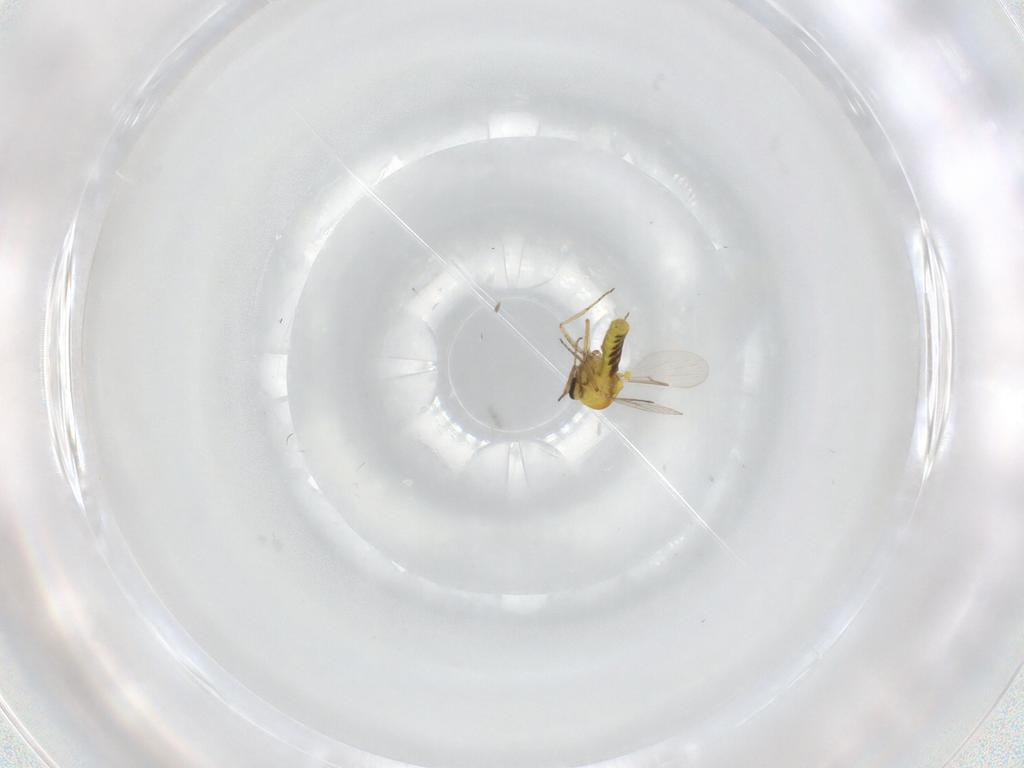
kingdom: Animalia
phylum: Arthropoda
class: Insecta
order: Diptera
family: Ceratopogonidae
